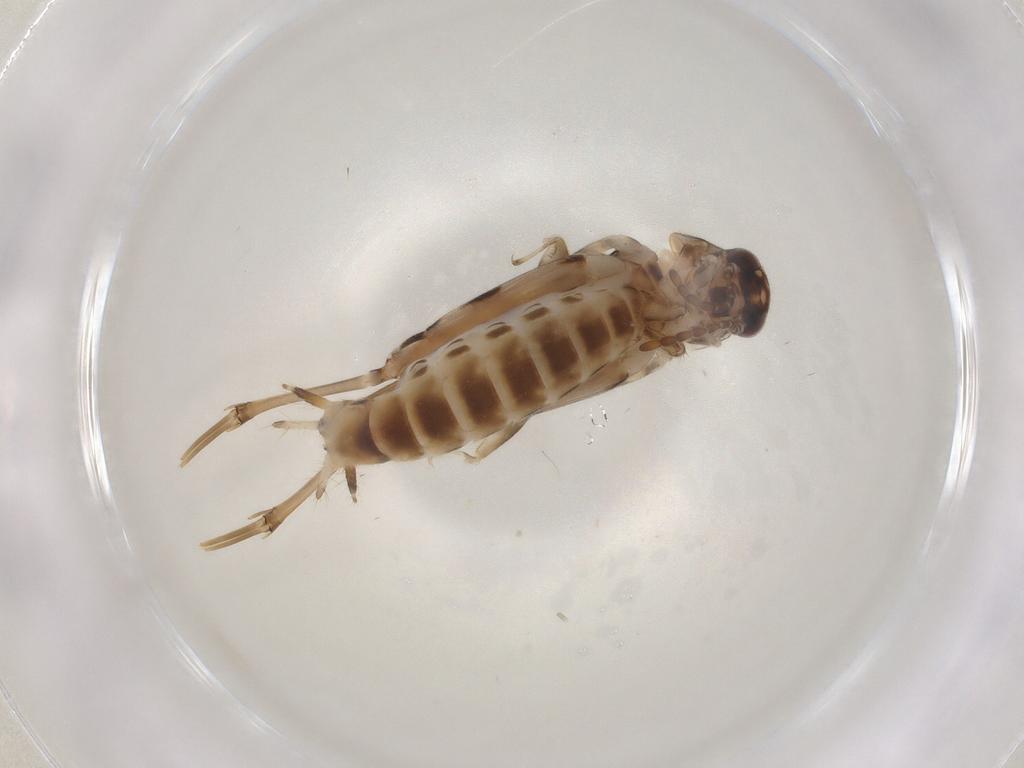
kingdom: Animalia
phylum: Arthropoda
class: Insecta
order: Orthoptera
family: Tridactylidae
